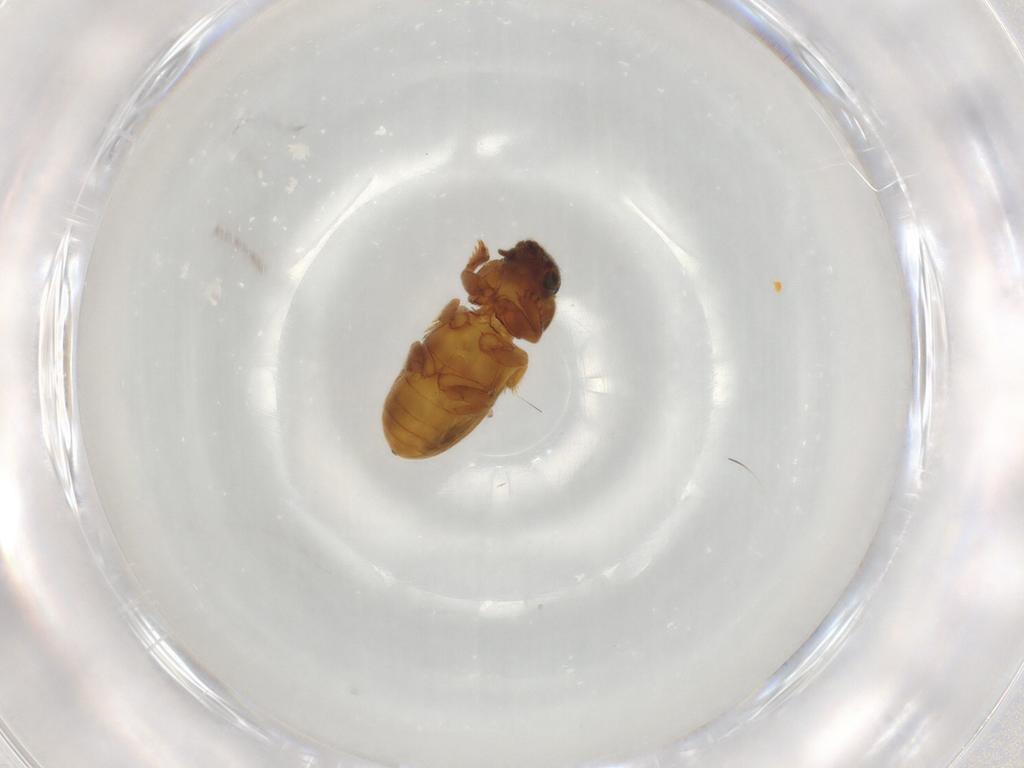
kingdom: Animalia
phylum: Arthropoda
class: Insecta
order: Coleoptera
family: Heteroceridae
